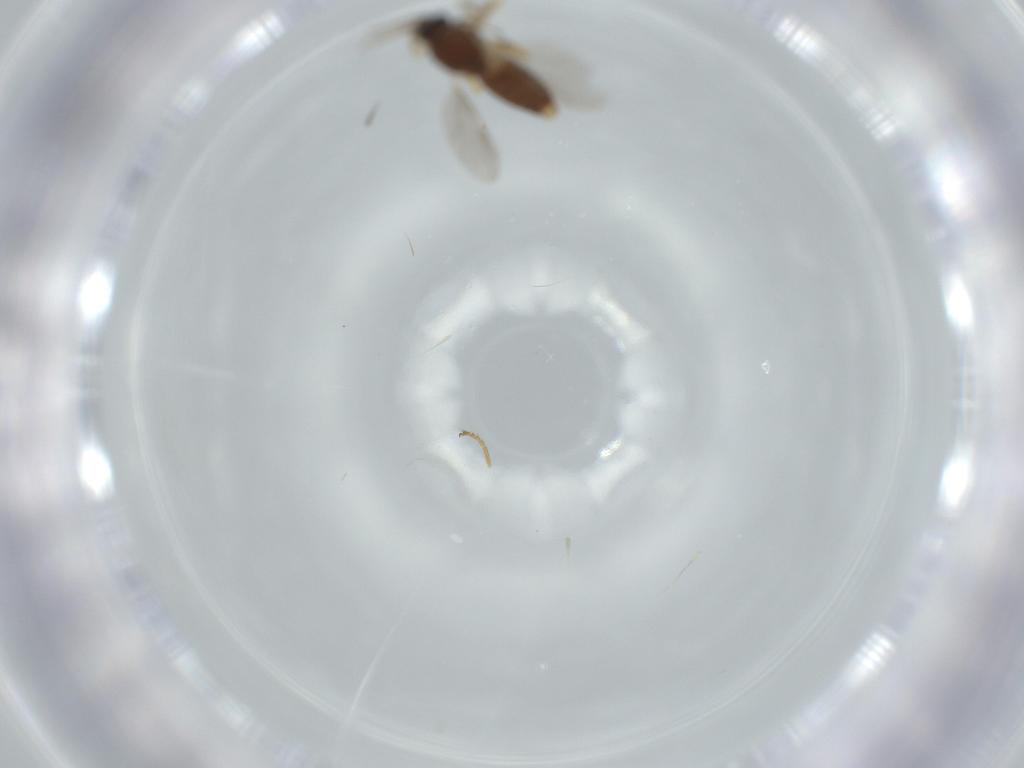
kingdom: Animalia
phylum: Arthropoda
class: Insecta
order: Diptera
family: Chloropidae
